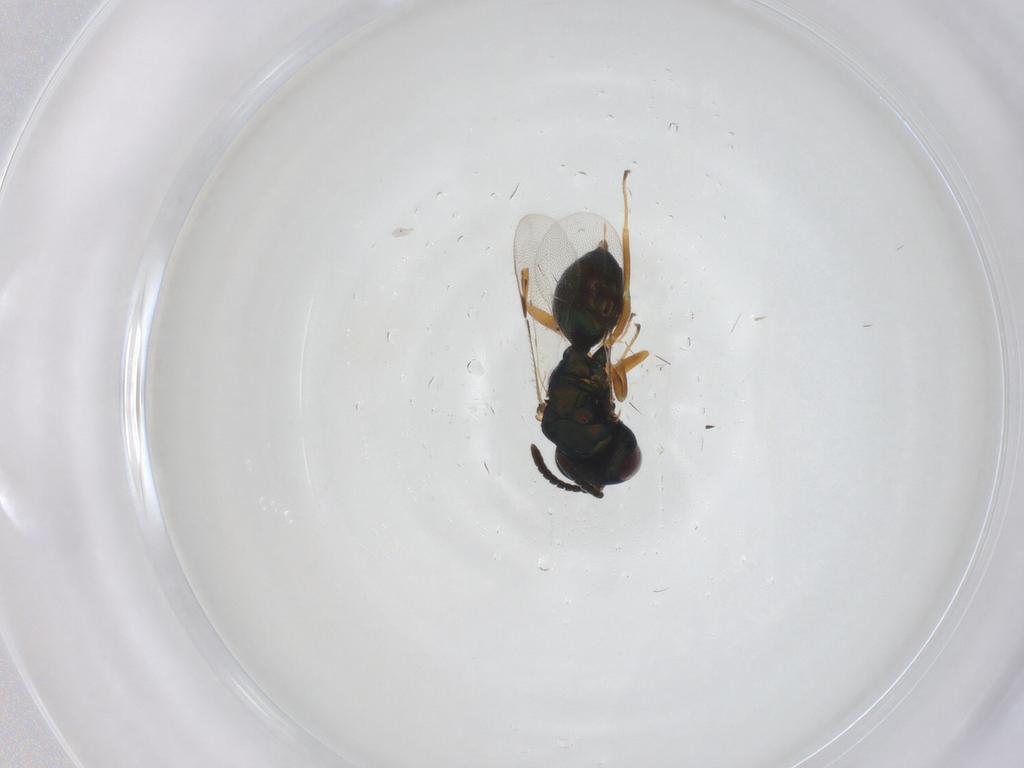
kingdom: Animalia
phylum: Arthropoda
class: Insecta
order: Hymenoptera
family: Pteromalidae
